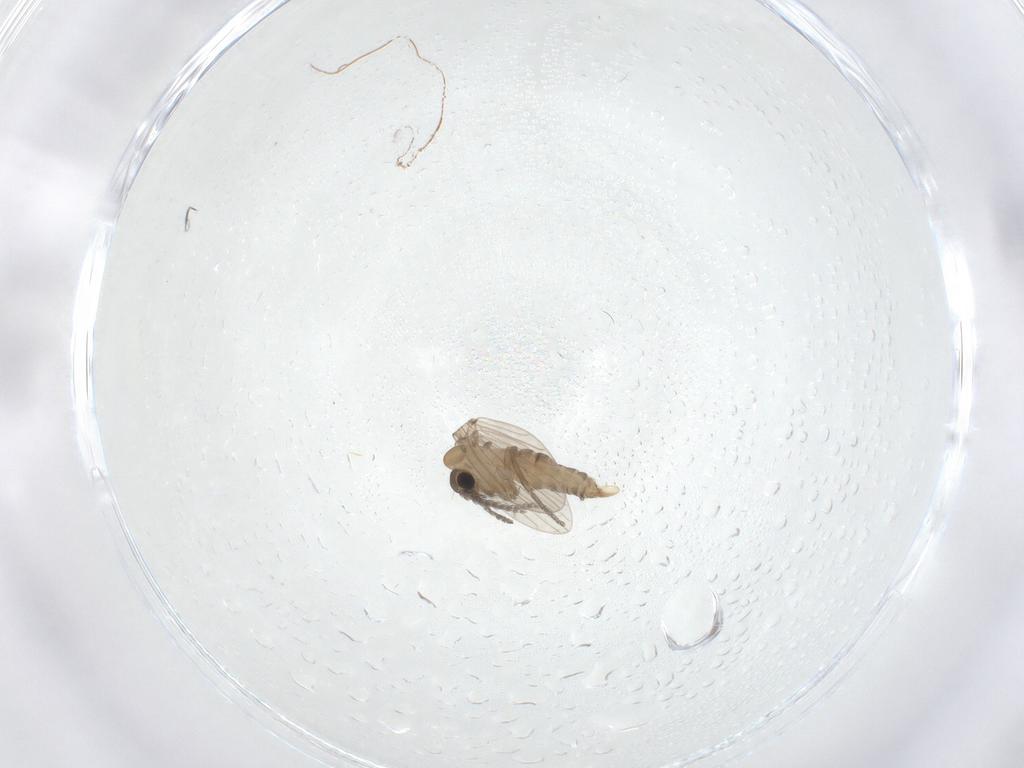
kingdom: Animalia
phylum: Arthropoda
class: Insecta
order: Diptera
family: Psychodidae
